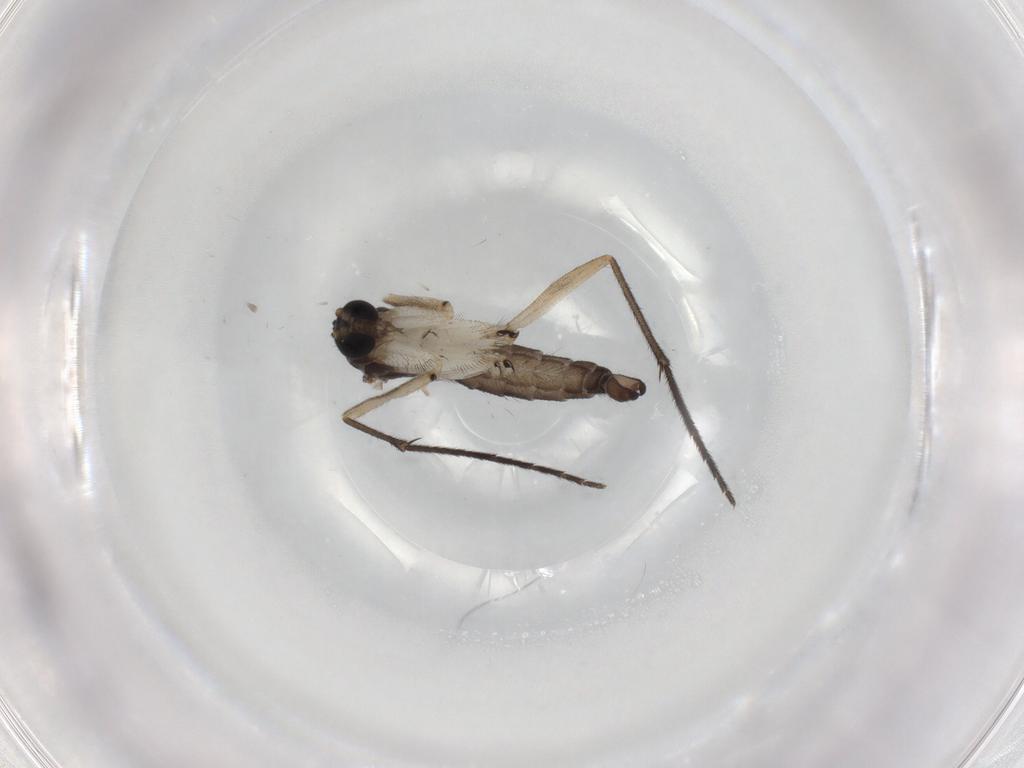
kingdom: Animalia
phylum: Arthropoda
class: Insecta
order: Diptera
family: Sciaridae
